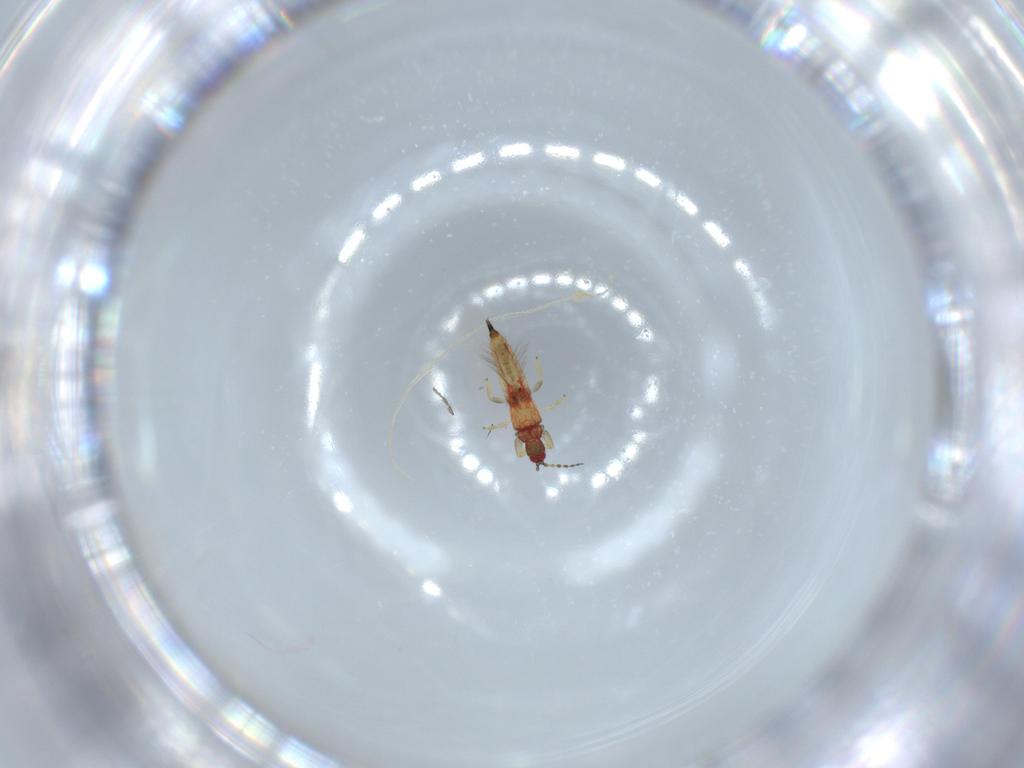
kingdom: Animalia
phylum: Arthropoda
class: Insecta
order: Thysanoptera
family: Phlaeothripidae
